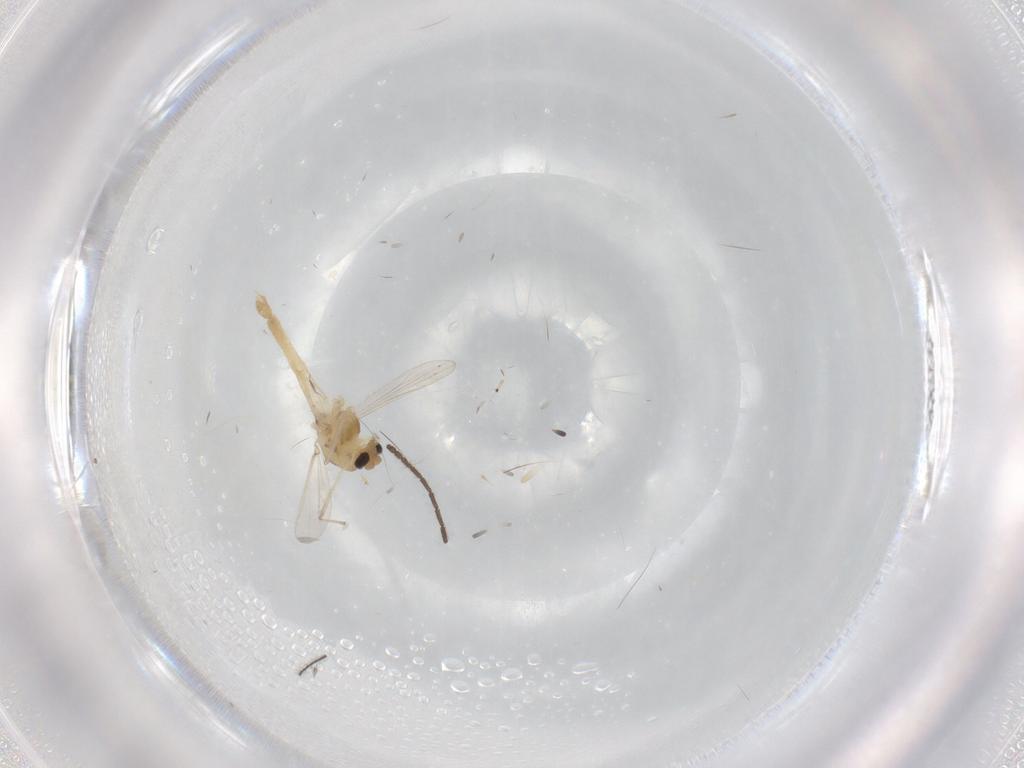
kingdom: Animalia
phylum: Arthropoda
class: Insecta
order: Diptera
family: Chironomidae
